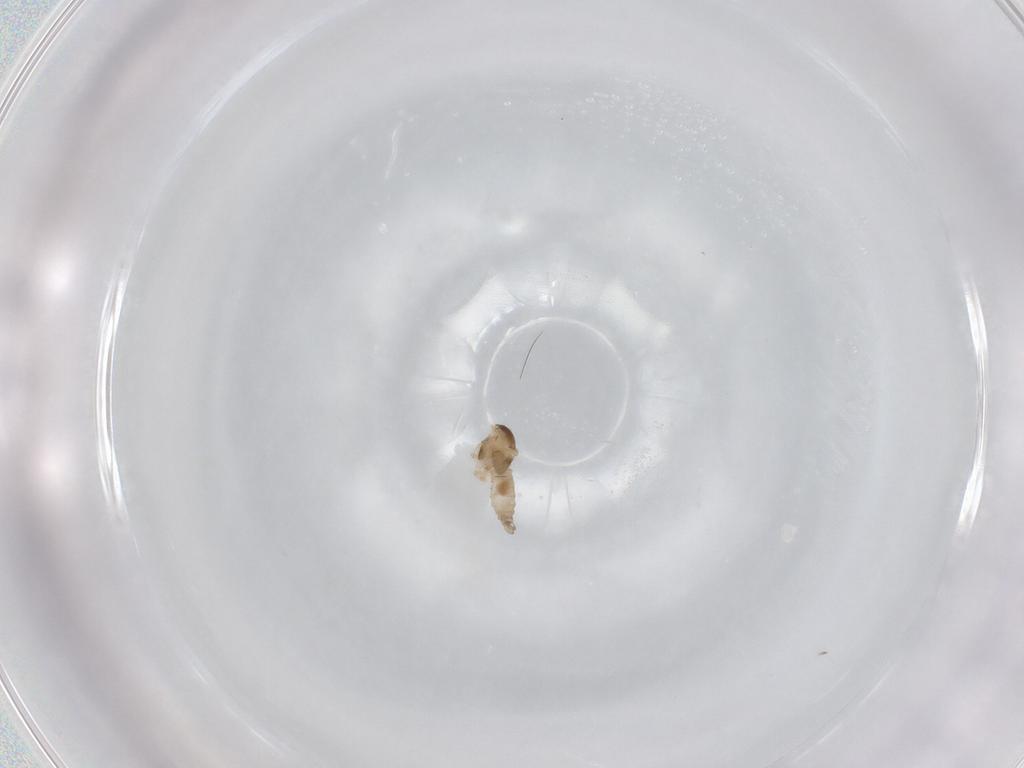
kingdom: Animalia
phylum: Arthropoda
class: Insecta
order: Diptera
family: Cecidomyiidae
